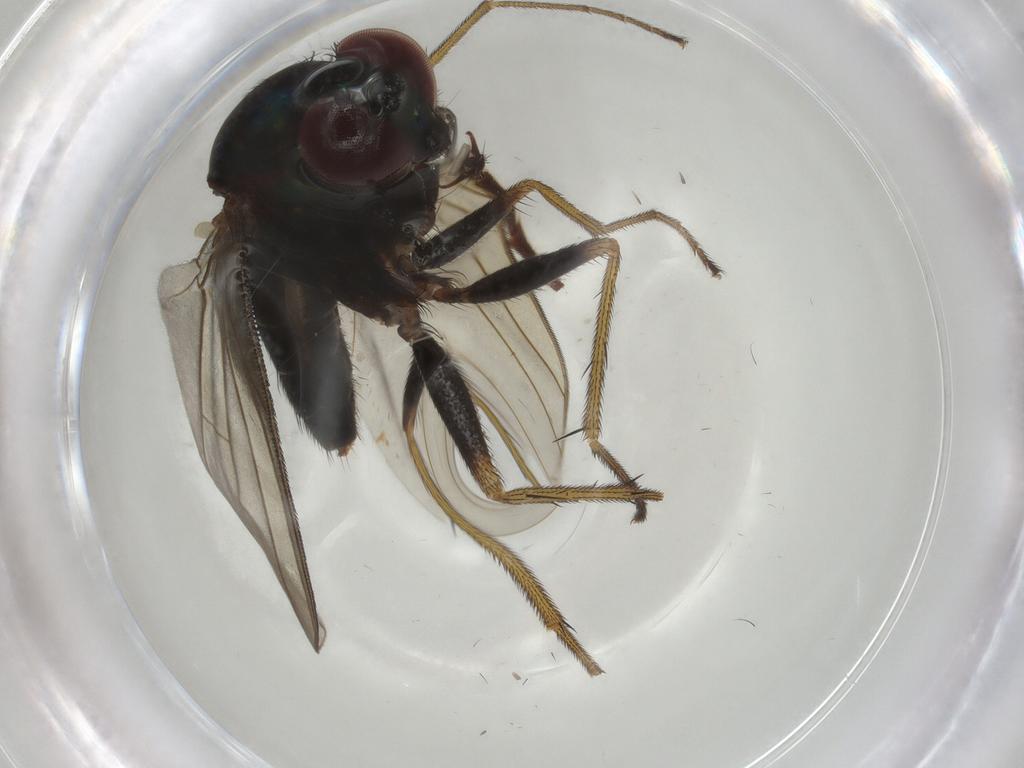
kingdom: Animalia
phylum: Arthropoda
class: Insecta
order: Diptera
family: Dolichopodidae
